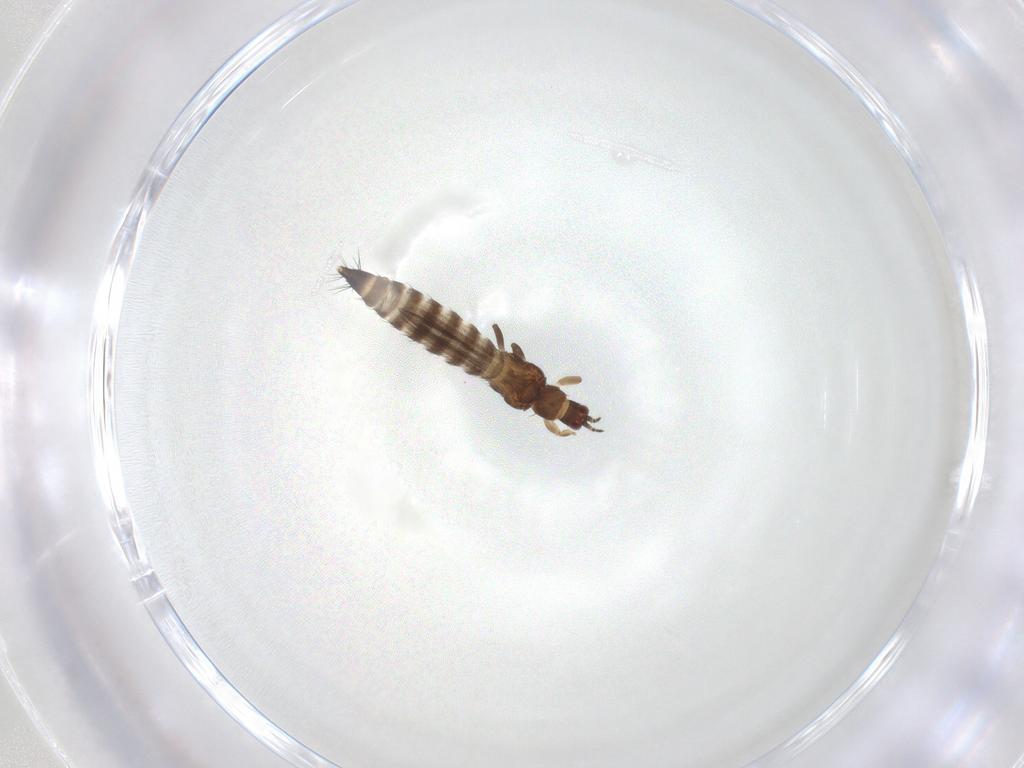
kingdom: Animalia
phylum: Arthropoda
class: Insecta
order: Thysanoptera
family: Thripidae
